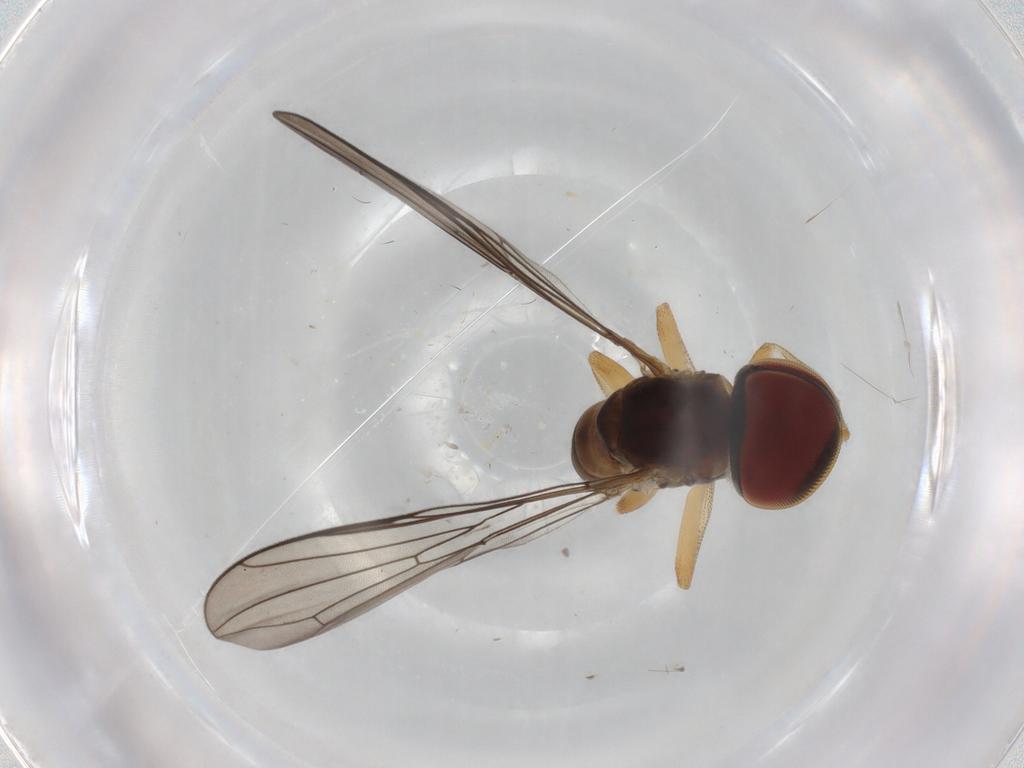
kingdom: Animalia
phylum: Arthropoda
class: Insecta
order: Diptera
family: Pipunculidae
